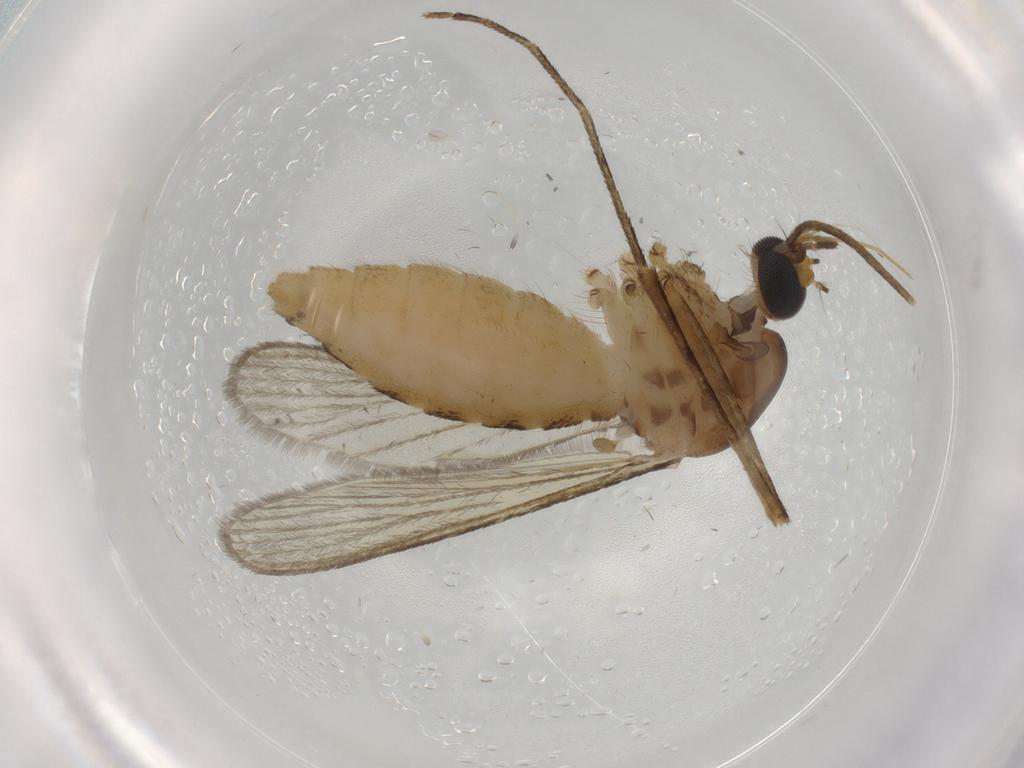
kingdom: Animalia
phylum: Arthropoda
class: Insecta
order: Diptera
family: Culicidae
